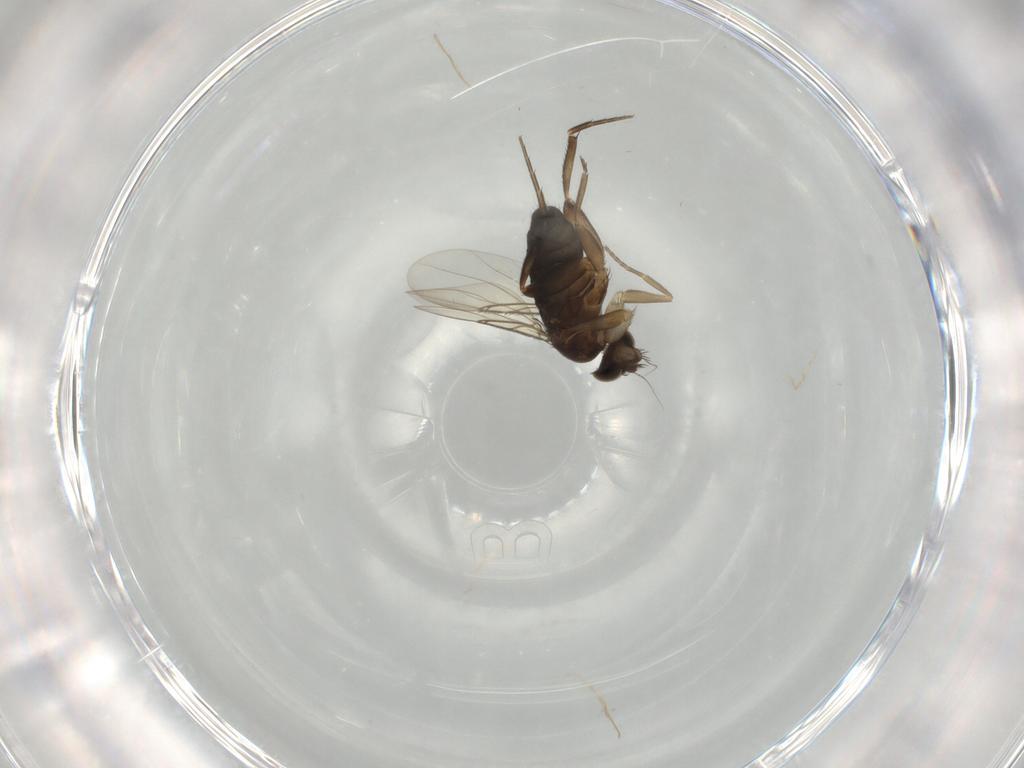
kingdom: Animalia
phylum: Arthropoda
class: Insecta
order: Diptera
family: Phoridae
